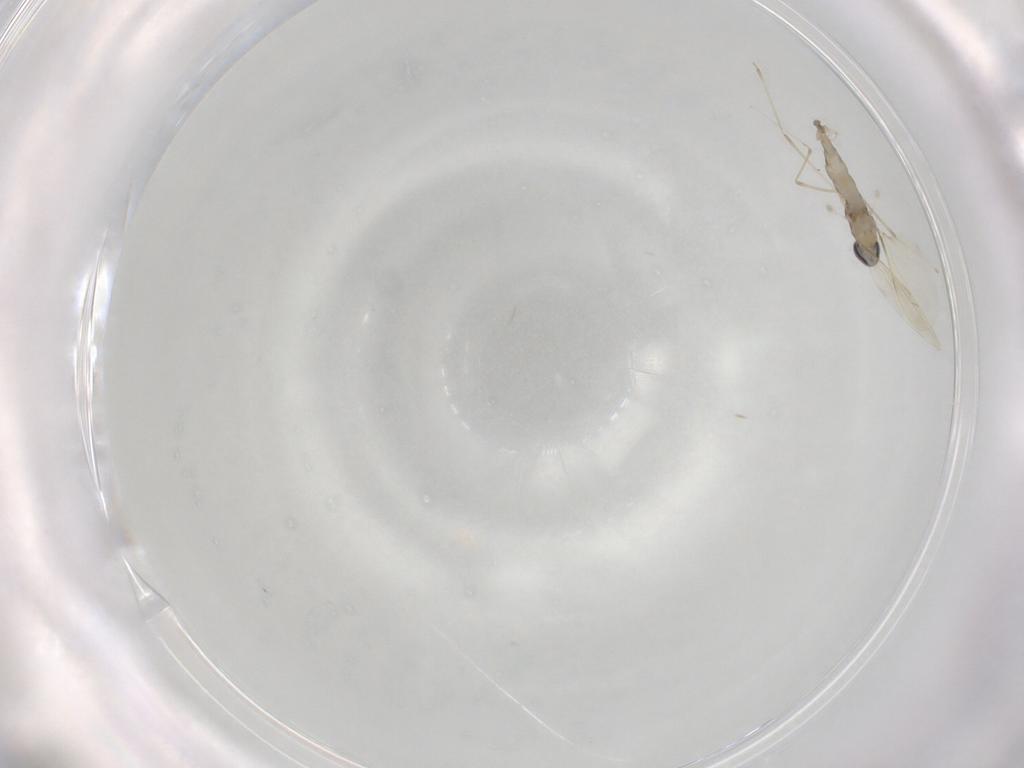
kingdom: Animalia
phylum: Arthropoda
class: Insecta
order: Diptera
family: Cecidomyiidae
